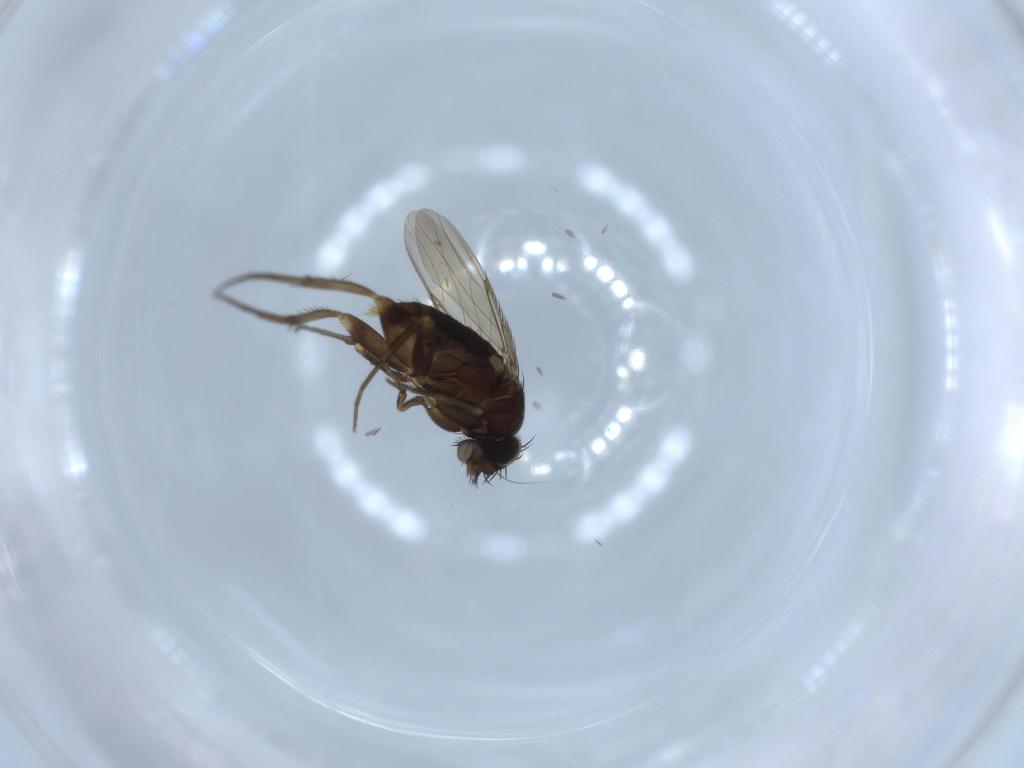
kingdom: Animalia
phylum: Arthropoda
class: Insecta
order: Diptera
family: Phoridae
